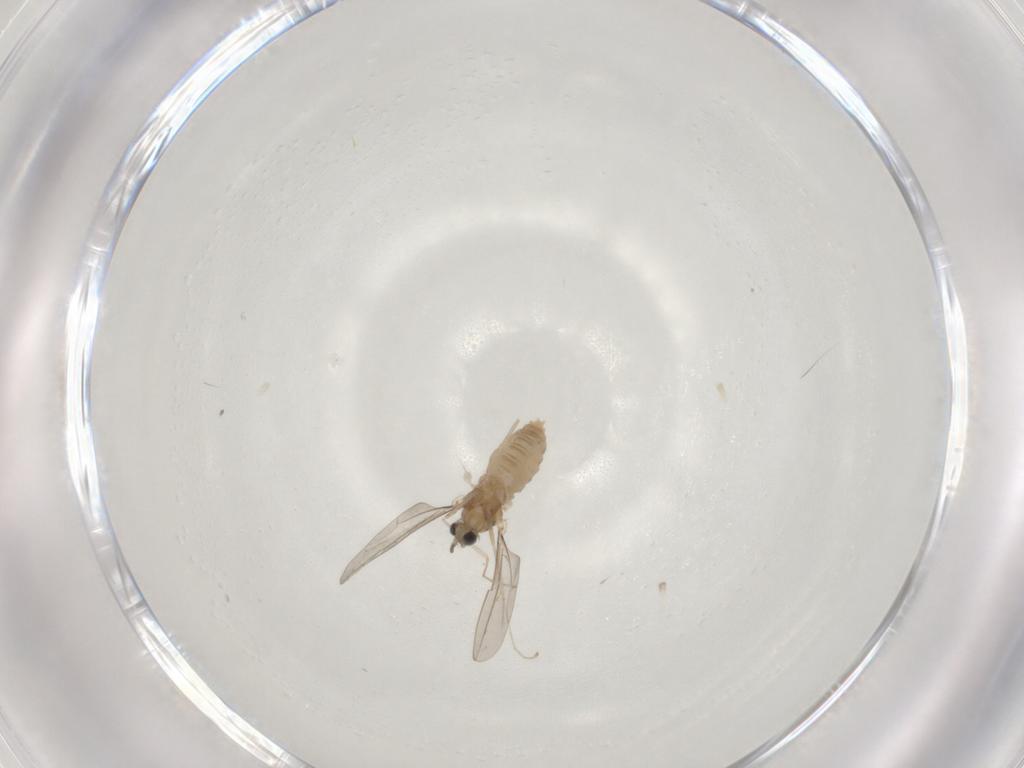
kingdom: Animalia
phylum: Arthropoda
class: Insecta
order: Diptera
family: Cecidomyiidae
